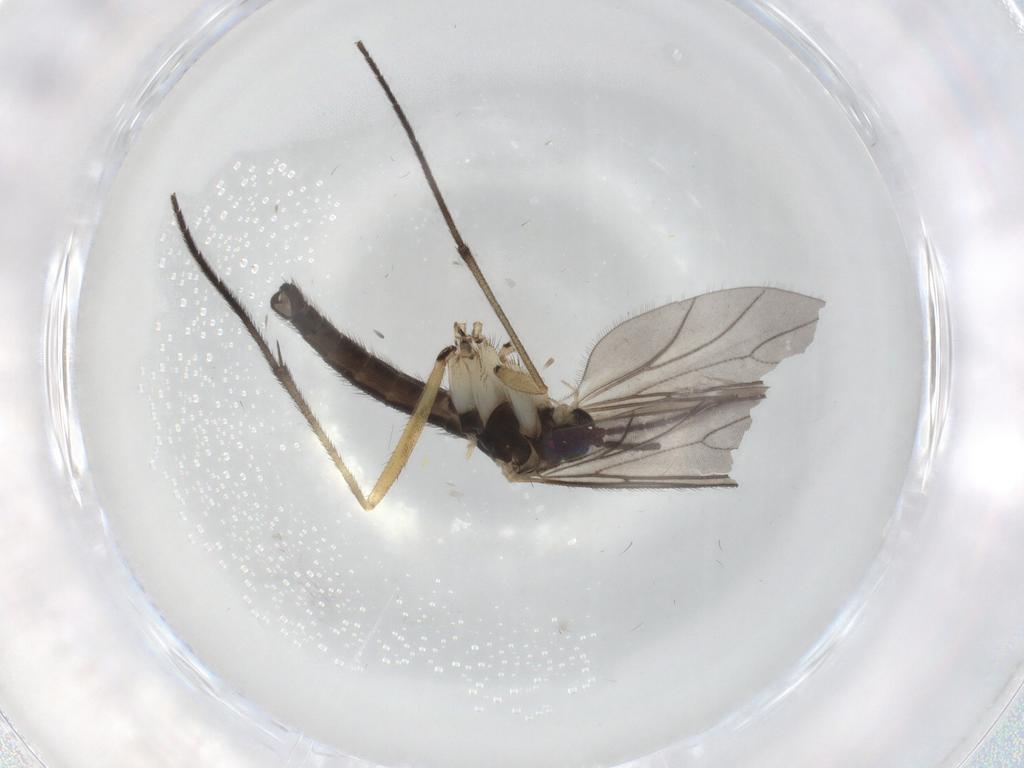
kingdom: Animalia
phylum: Arthropoda
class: Insecta
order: Diptera
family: Sciaridae
